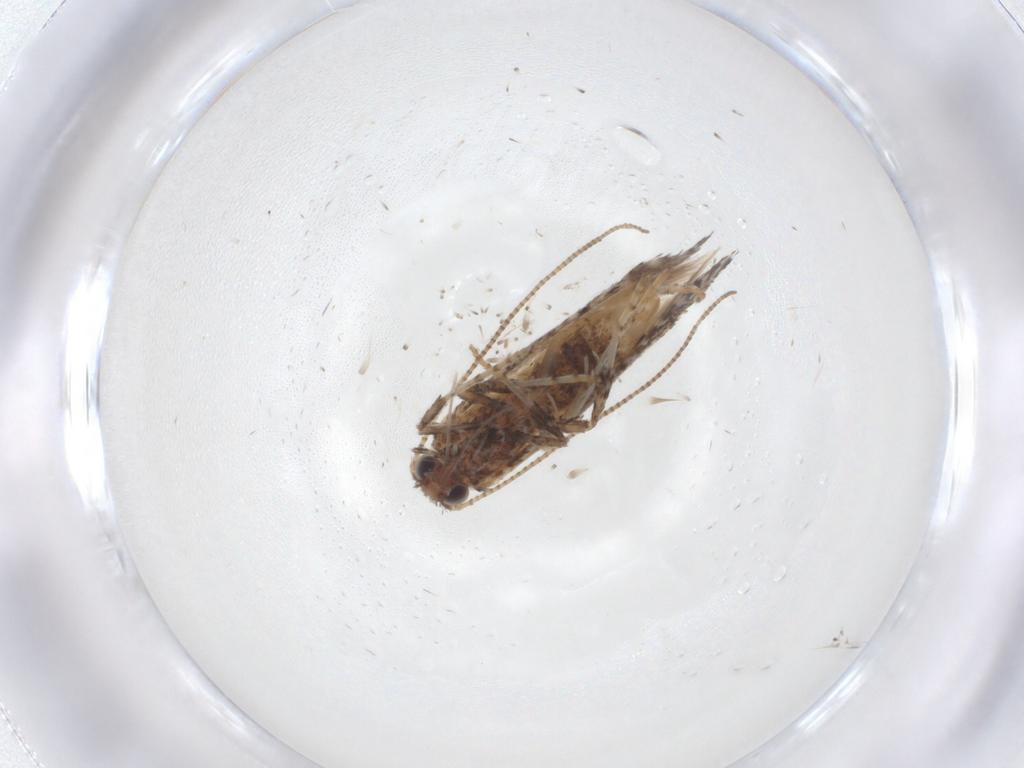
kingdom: Animalia
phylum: Arthropoda
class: Insecta
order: Lepidoptera
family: Gracillariidae
